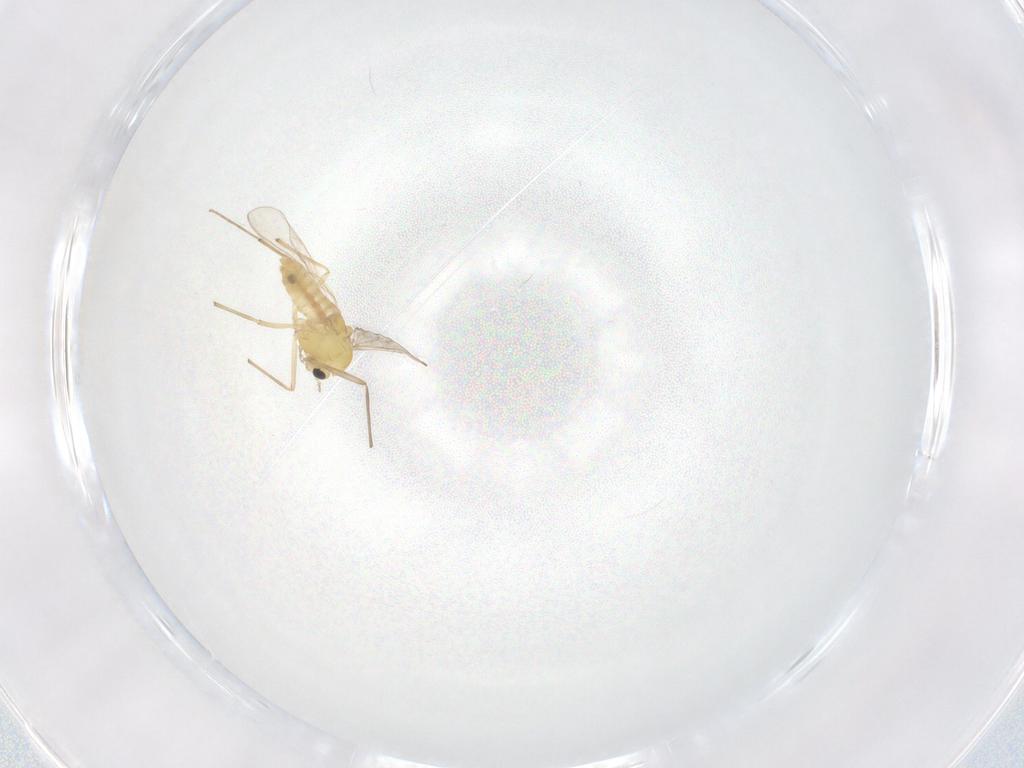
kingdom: Animalia
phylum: Arthropoda
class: Insecta
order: Diptera
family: Chironomidae
